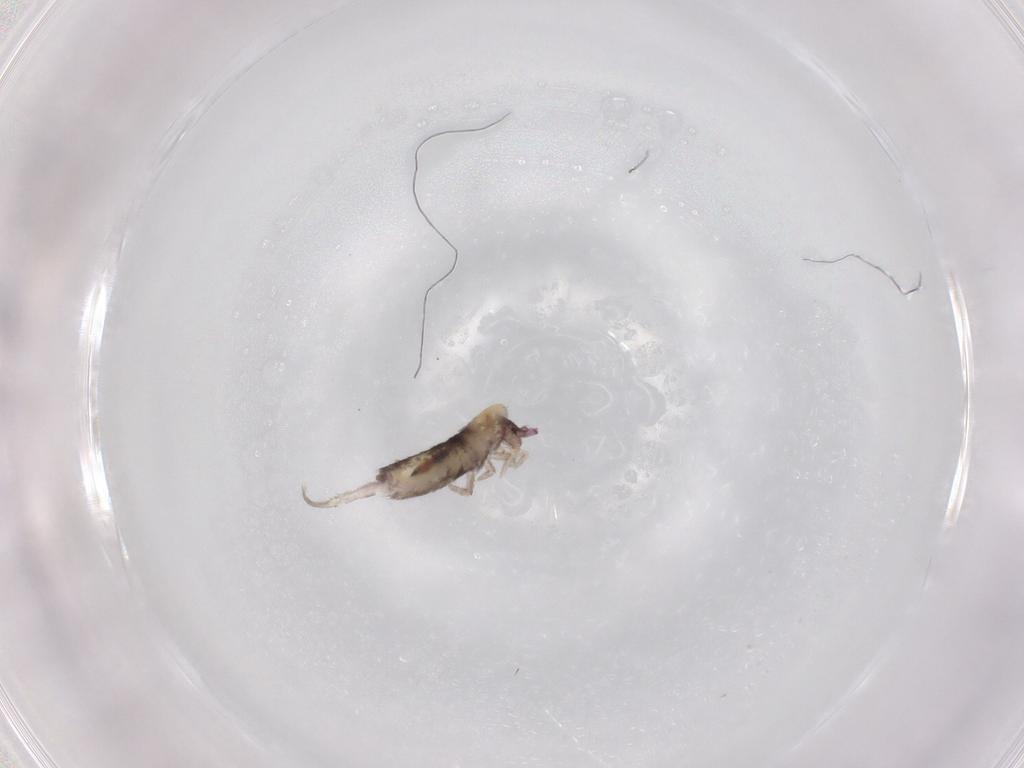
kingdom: Animalia
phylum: Arthropoda
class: Collembola
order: Entomobryomorpha
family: Entomobryidae
